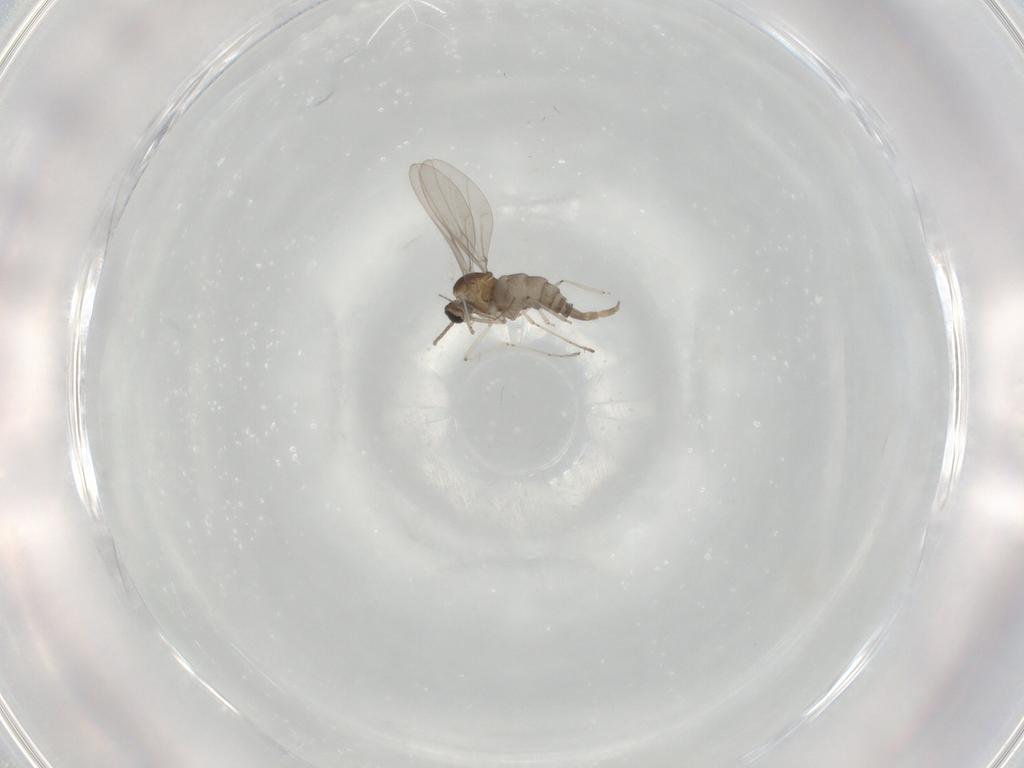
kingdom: Animalia
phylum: Arthropoda
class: Insecta
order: Diptera
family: Cecidomyiidae
